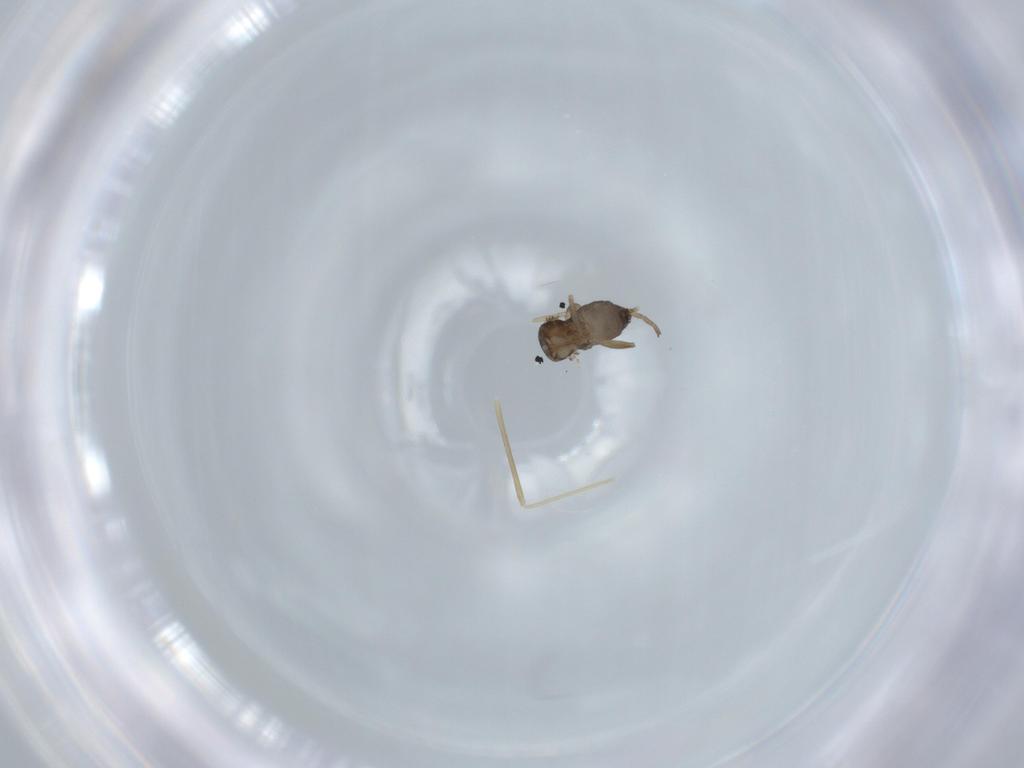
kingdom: Animalia
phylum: Arthropoda
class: Insecta
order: Diptera
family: Phoridae
